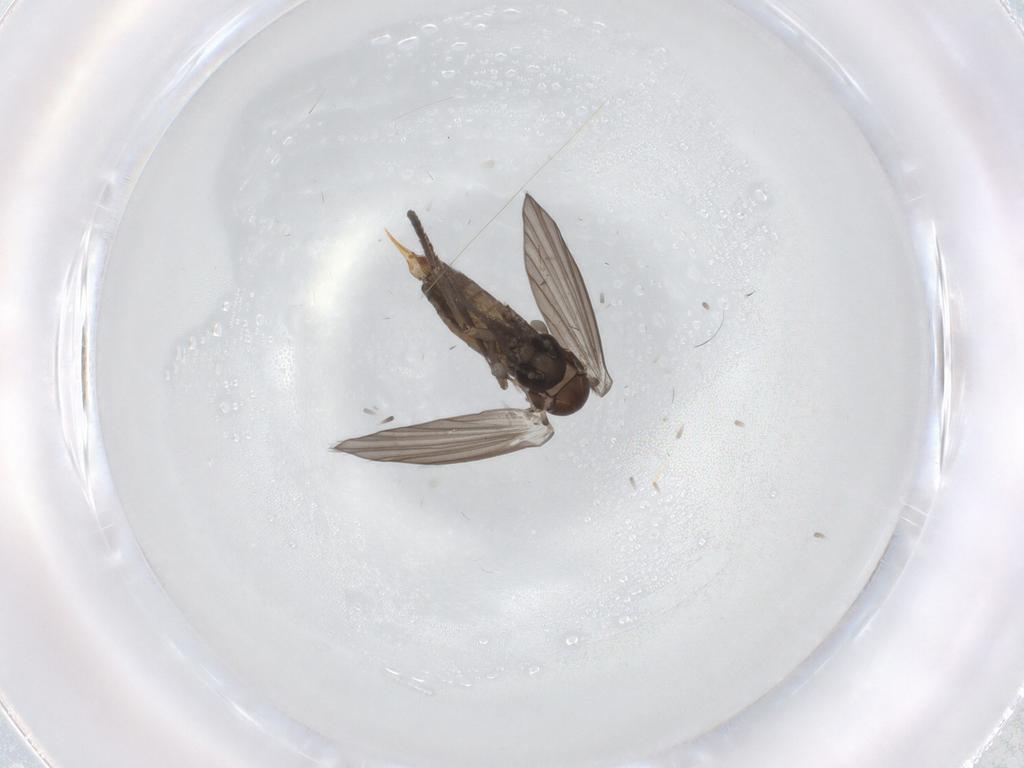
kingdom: Animalia
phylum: Arthropoda
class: Insecta
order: Diptera
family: Psychodidae
